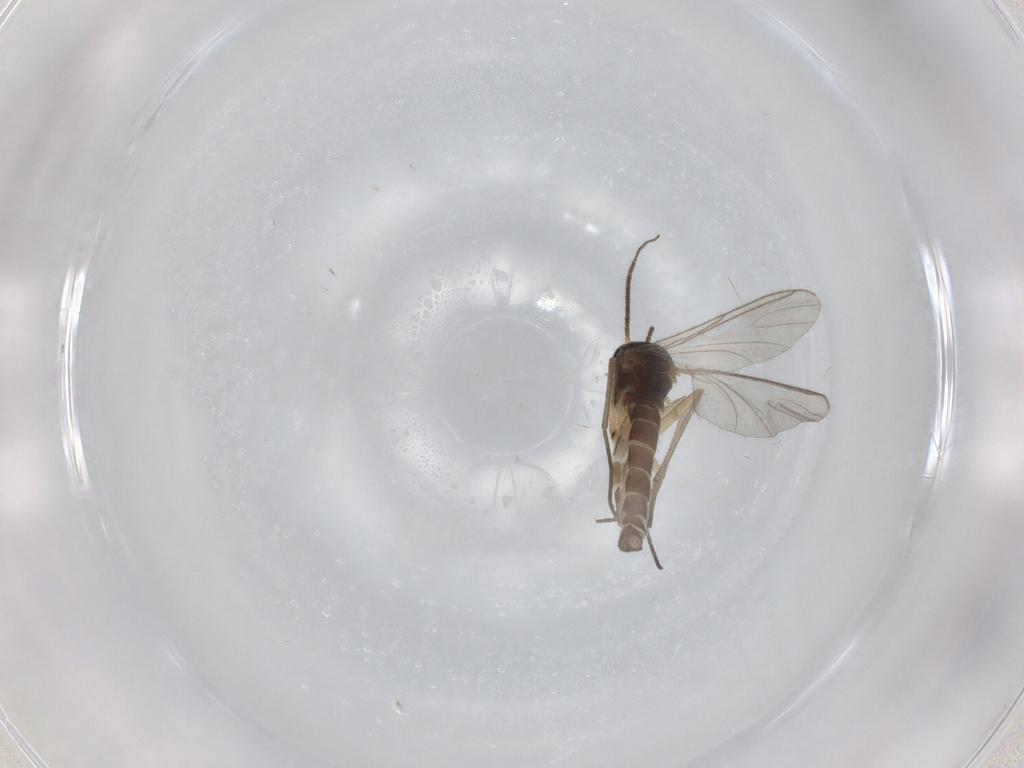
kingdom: Animalia
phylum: Arthropoda
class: Insecta
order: Diptera
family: Sciaridae
